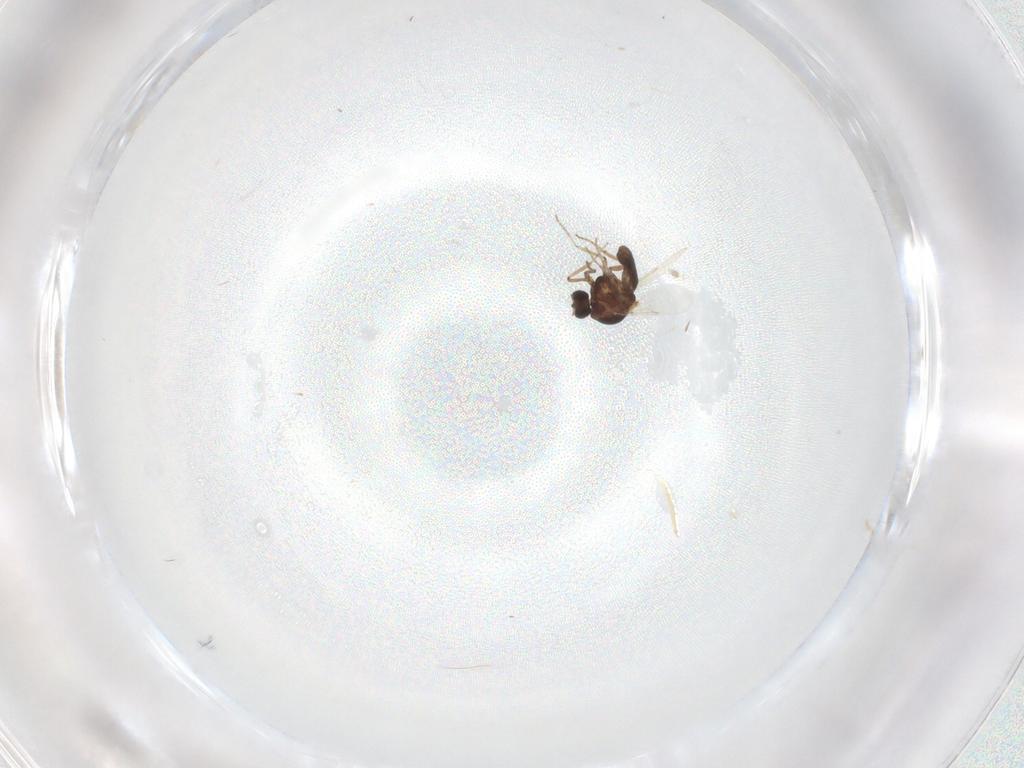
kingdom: Animalia
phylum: Arthropoda
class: Insecta
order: Diptera
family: Ceratopogonidae
